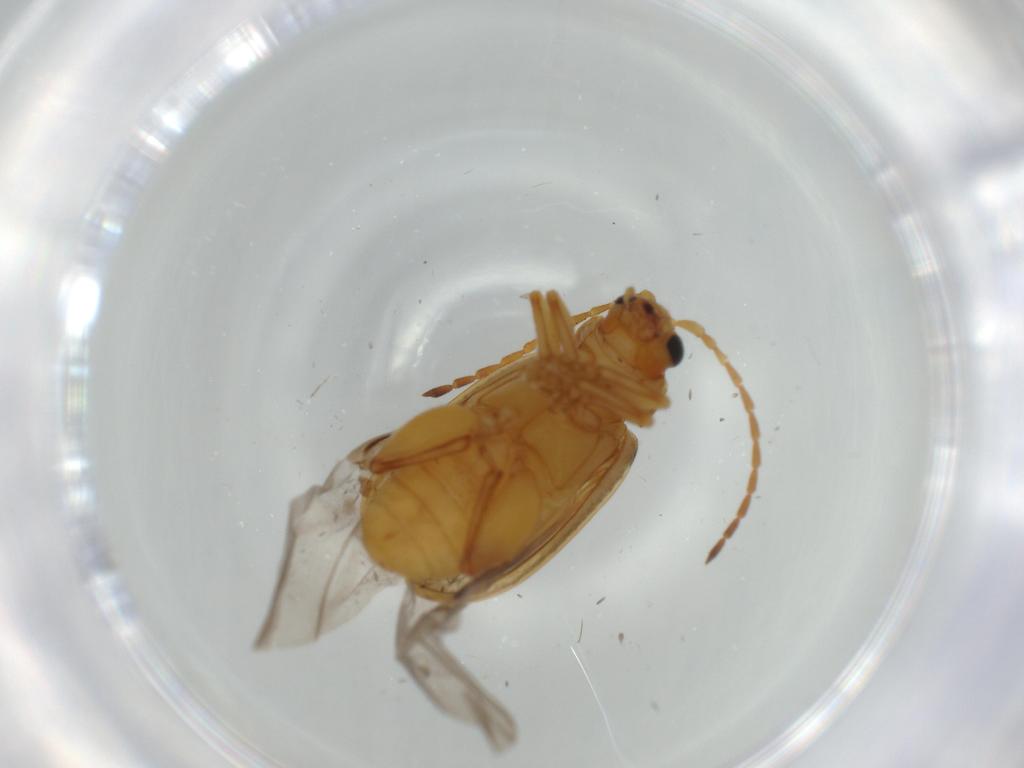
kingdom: Animalia
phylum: Arthropoda
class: Insecta
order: Coleoptera
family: Chrysomelidae
